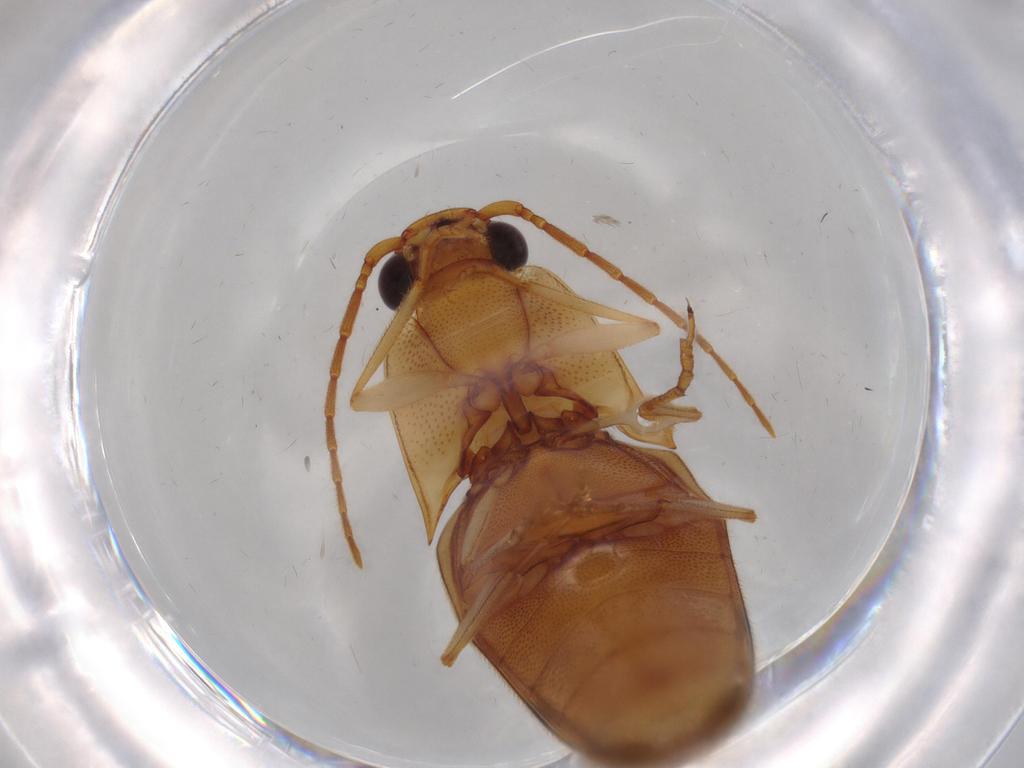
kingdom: Animalia
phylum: Arthropoda
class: Insecta
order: Coleoptera
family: Elateridae
